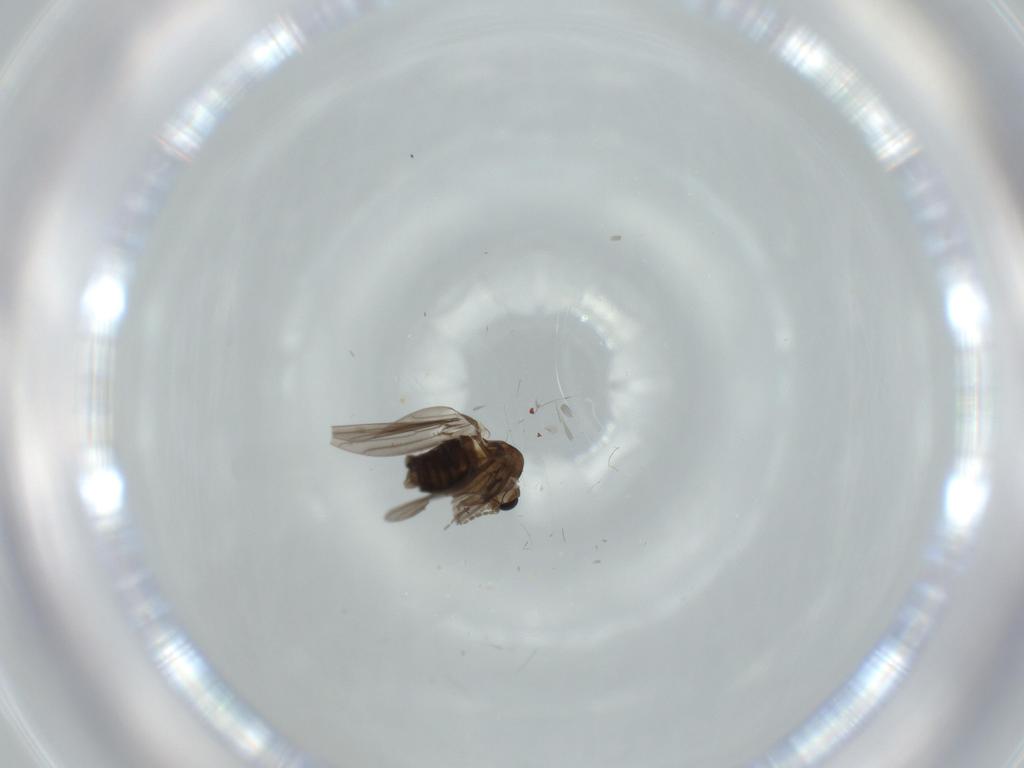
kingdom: Animalia
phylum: Arthropoda
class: Insecta
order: Diptera
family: Psychodidae
